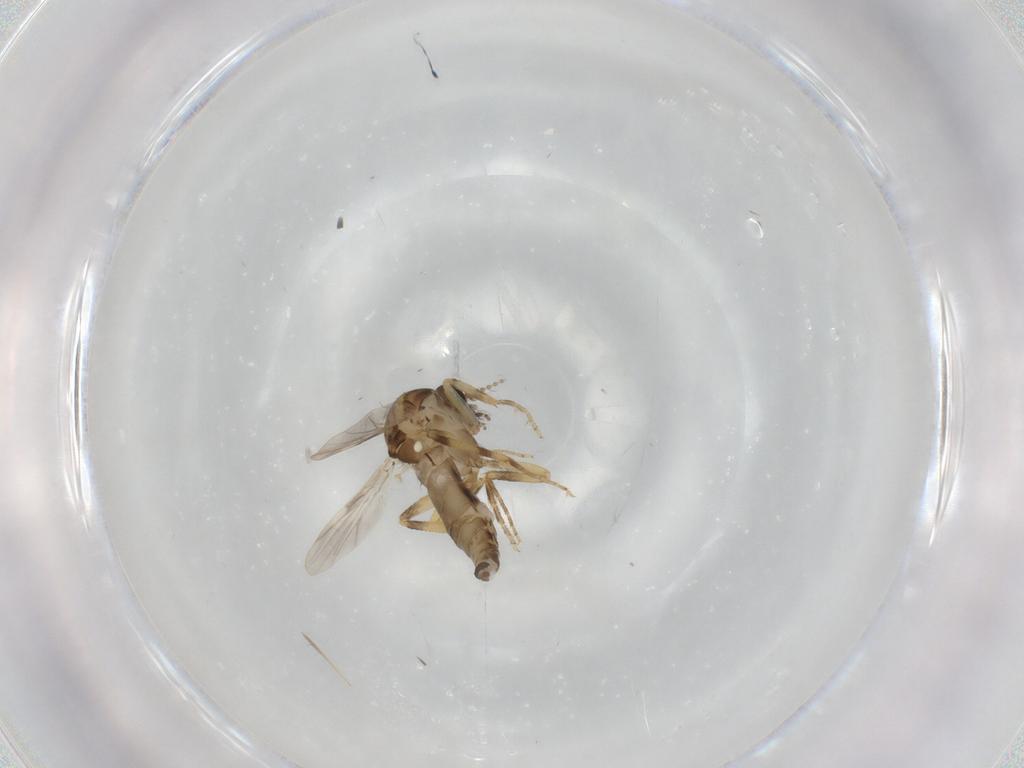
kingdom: Animalia
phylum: Arthropoda
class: Insecta
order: Diptera
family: Ceratopogonidae
